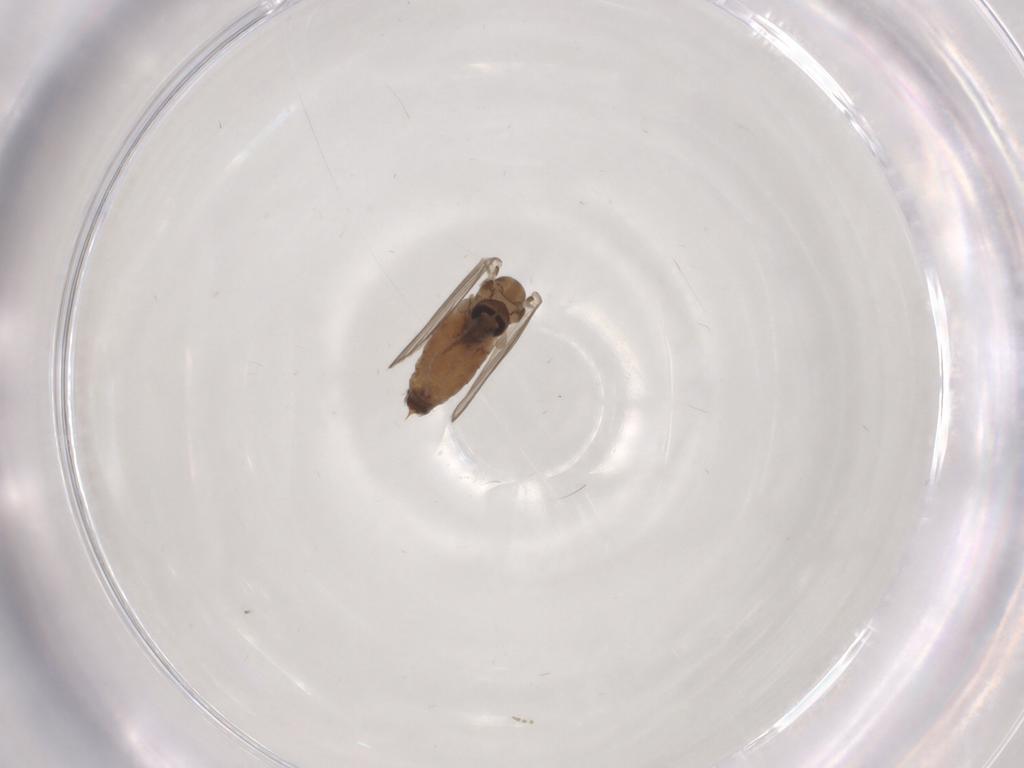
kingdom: Animalia
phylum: Arthropoda
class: Insecta
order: Diptera
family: Psychodidae
